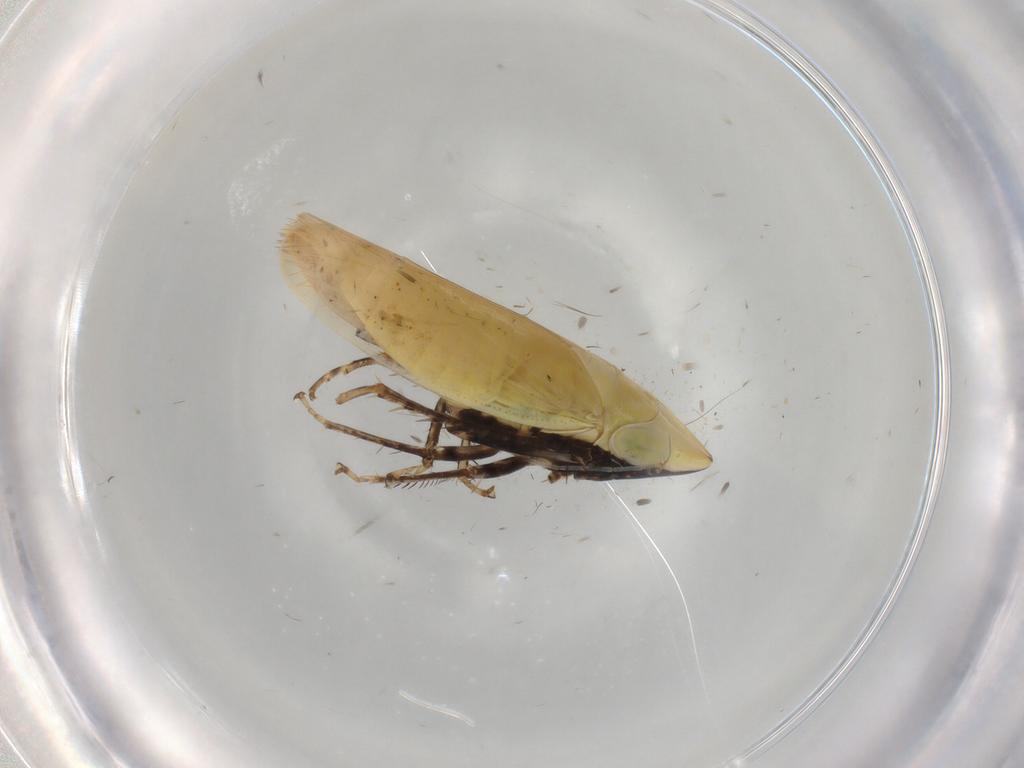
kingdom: Animalia
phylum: Arthropoda
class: Insecta
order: Hemiptera
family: Cicadellidae
